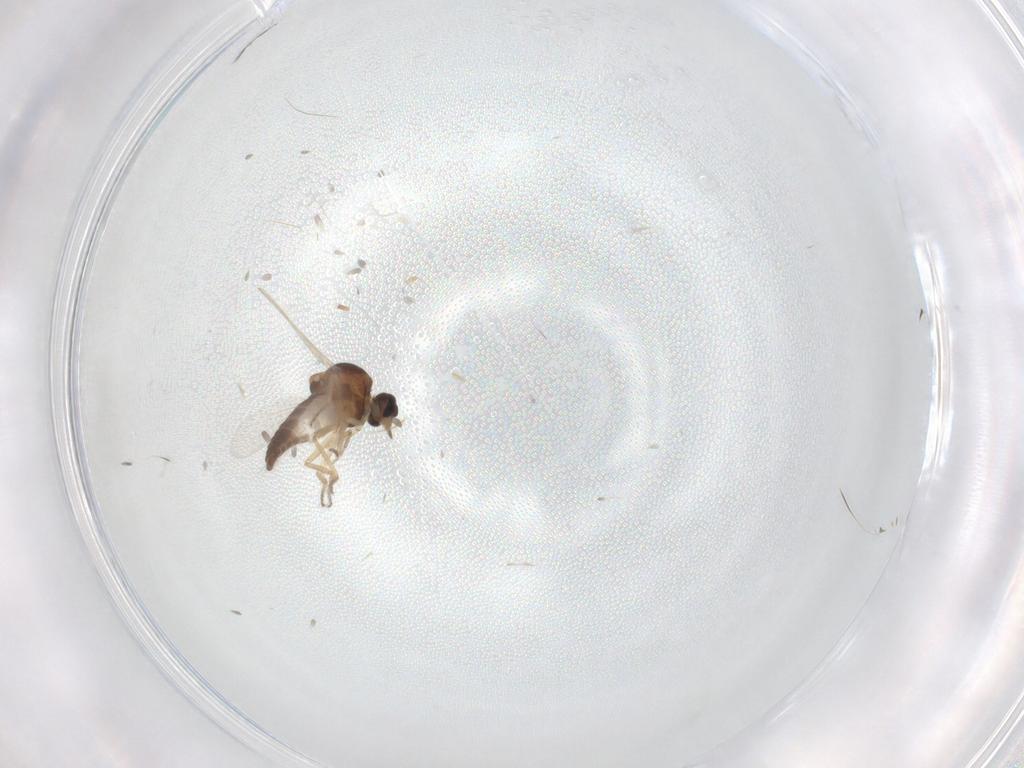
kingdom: Animalia
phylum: Arthropoda
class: Insecta
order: Diptera
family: Ceratopogonidae
